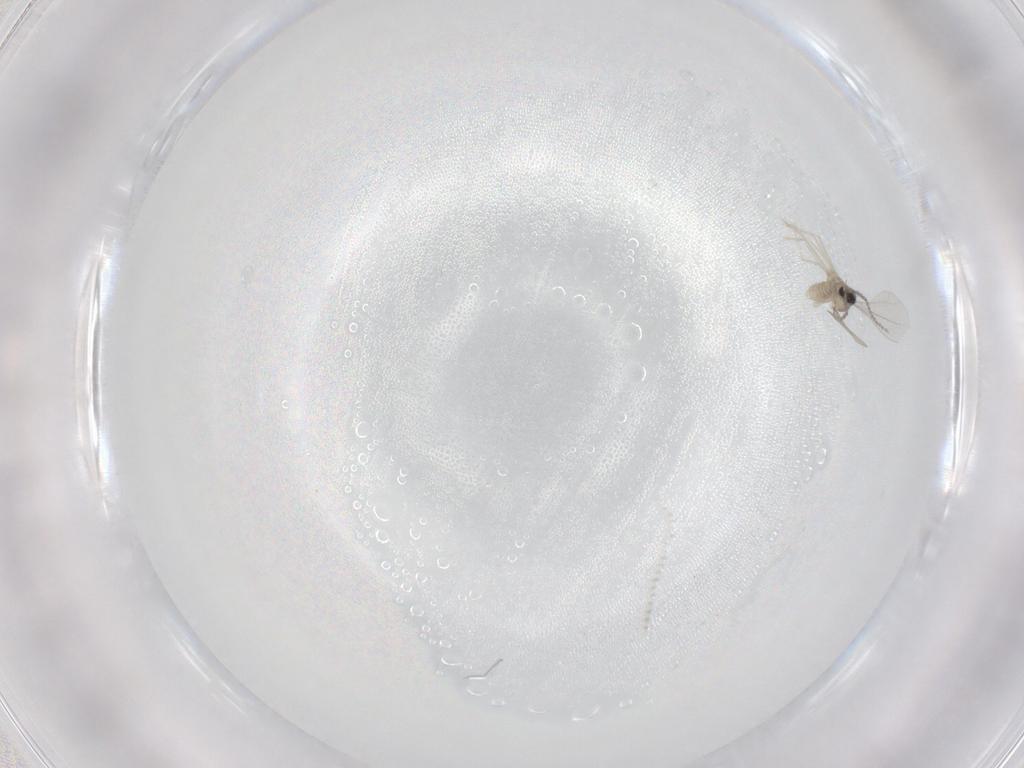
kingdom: Animalia
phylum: Arthropoda
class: Insecta
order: Diptera
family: Cecidomyiidae
